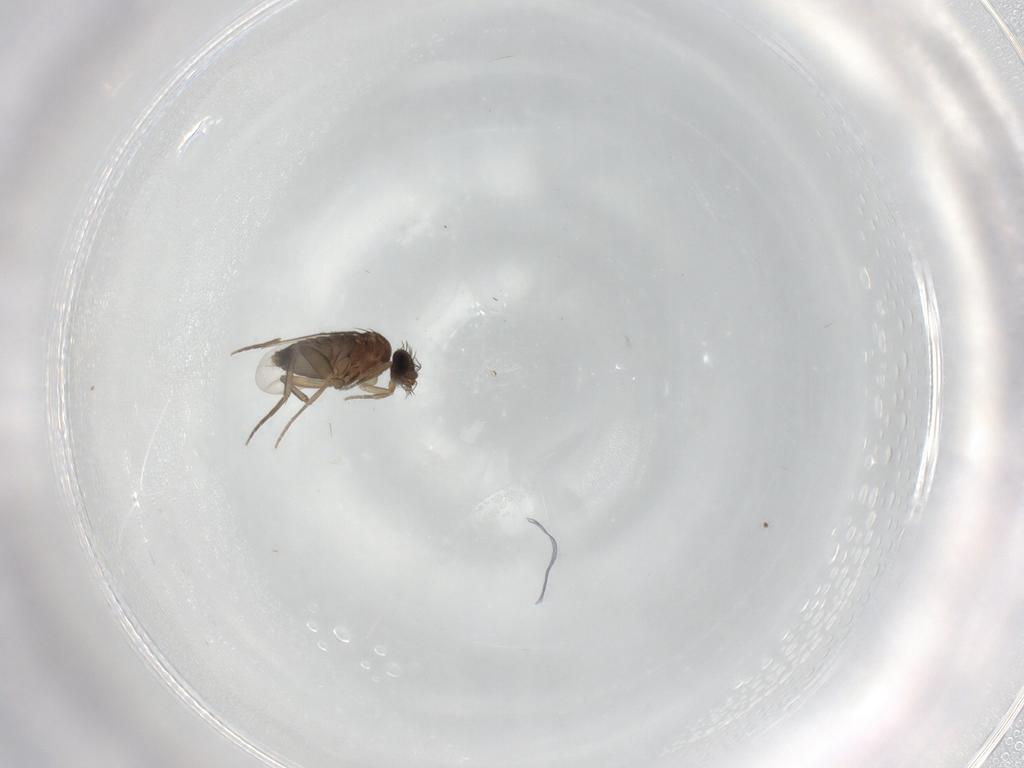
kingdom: Animalia
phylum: Arthropoda
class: Insecta
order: Diptera
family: Phoridae
